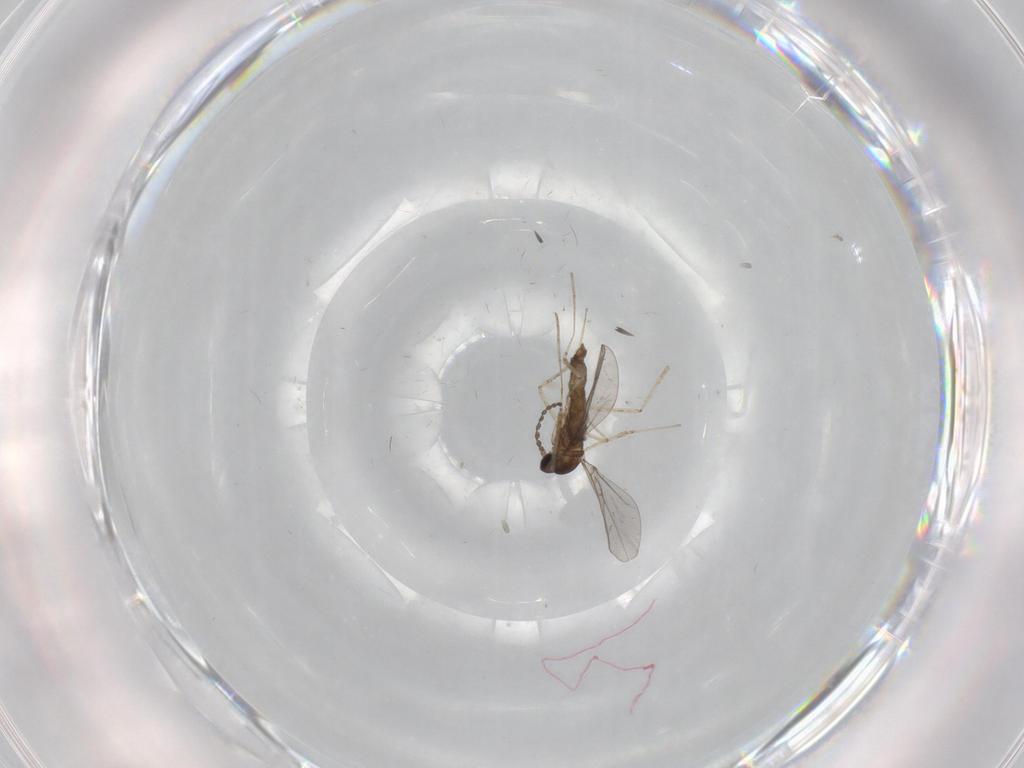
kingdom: Animalia
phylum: Arthropoda
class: Insecta
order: Diptera
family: Cecidomyiidae
